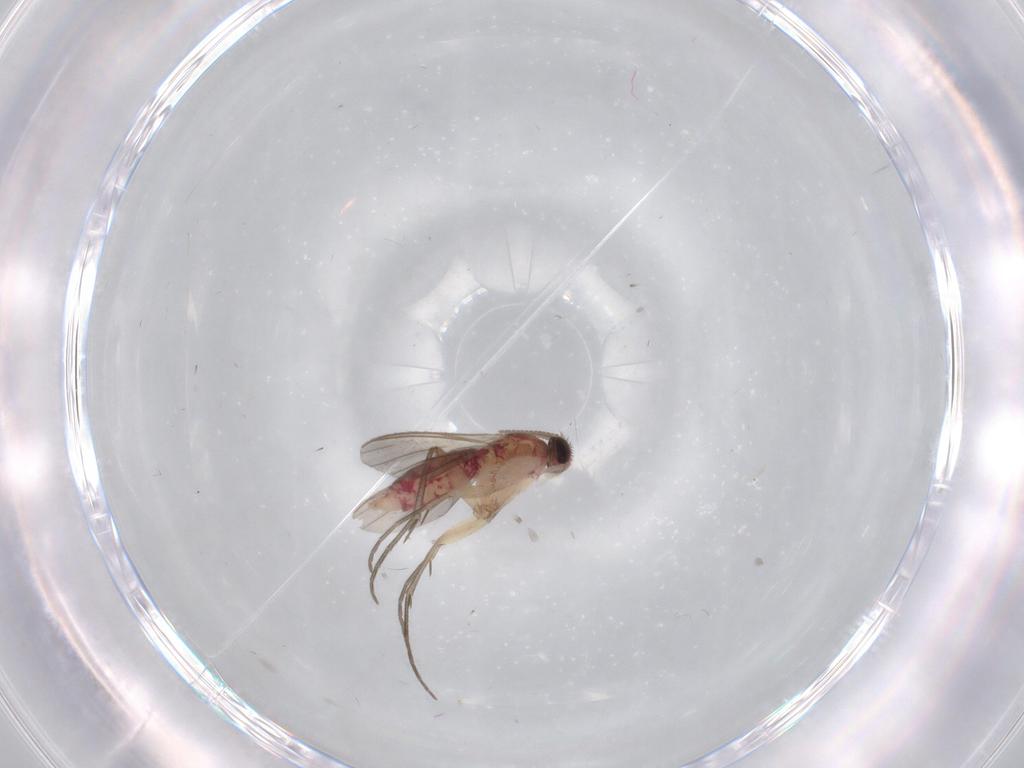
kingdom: Animalia
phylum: Arthropoda
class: Insecta
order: Diptera
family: Mycetophilidae
